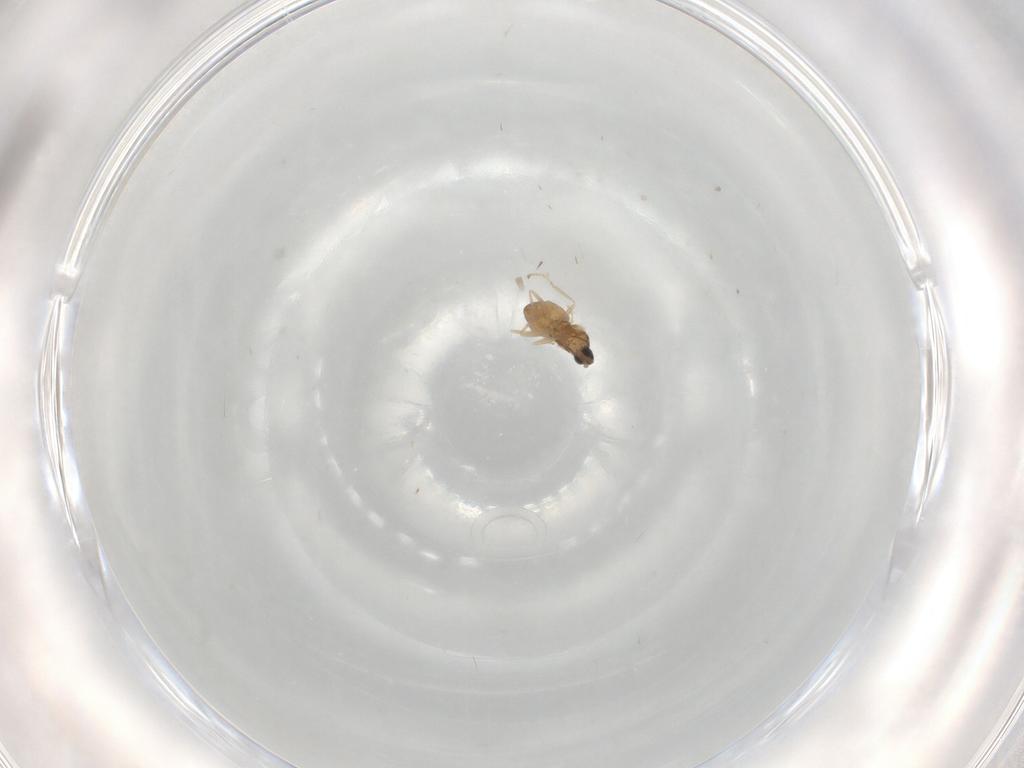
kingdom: Animalia
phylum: Arthropoda
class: Insecta
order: Diptera
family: Cecidomyiidae
